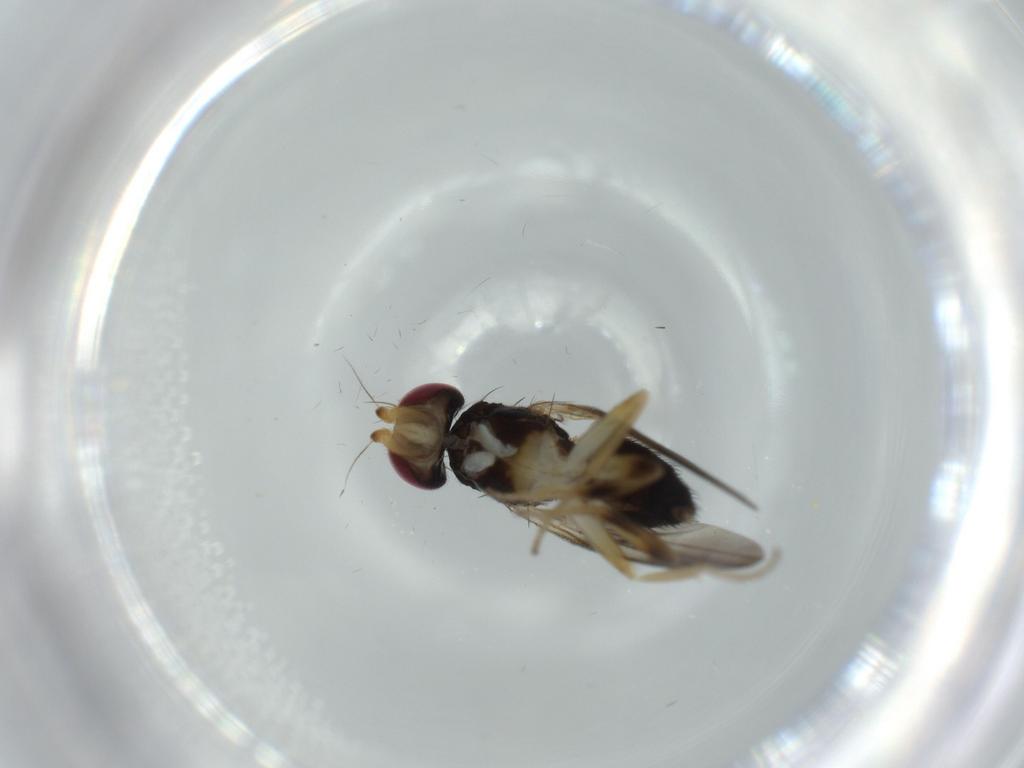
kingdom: Animalia
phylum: Arthropoda
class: Insecta
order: Diptera
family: Clusiidae
